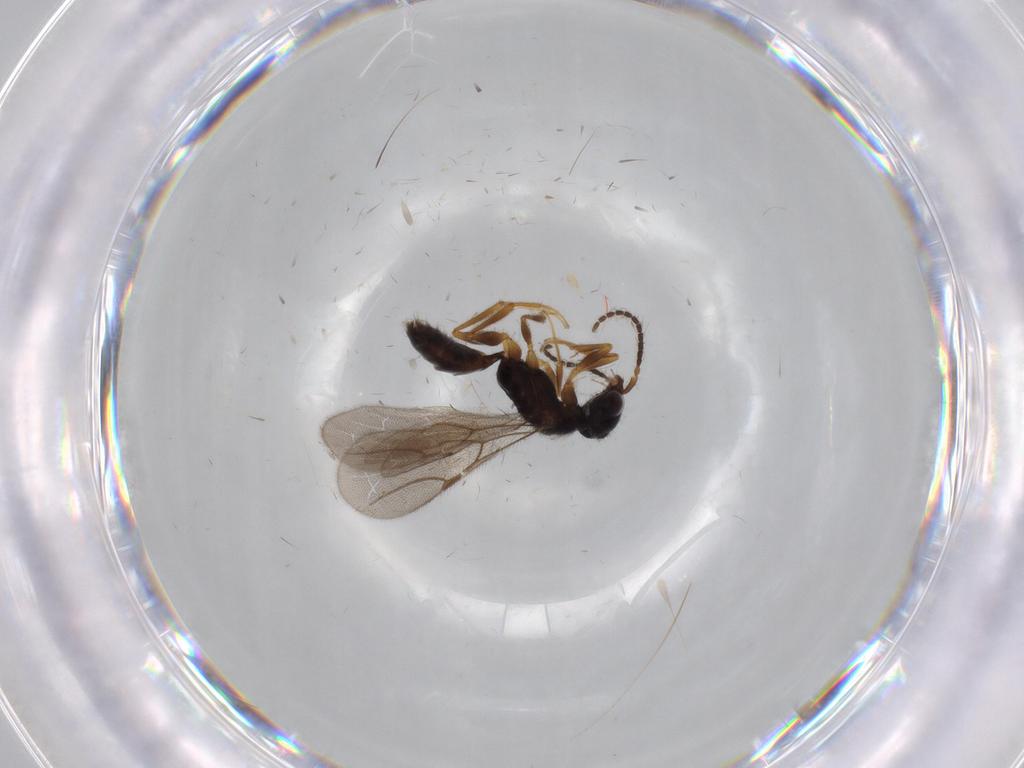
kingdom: Animalia
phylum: Arthropoda
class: Insecta
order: Hymenoptera
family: Bethylidae
